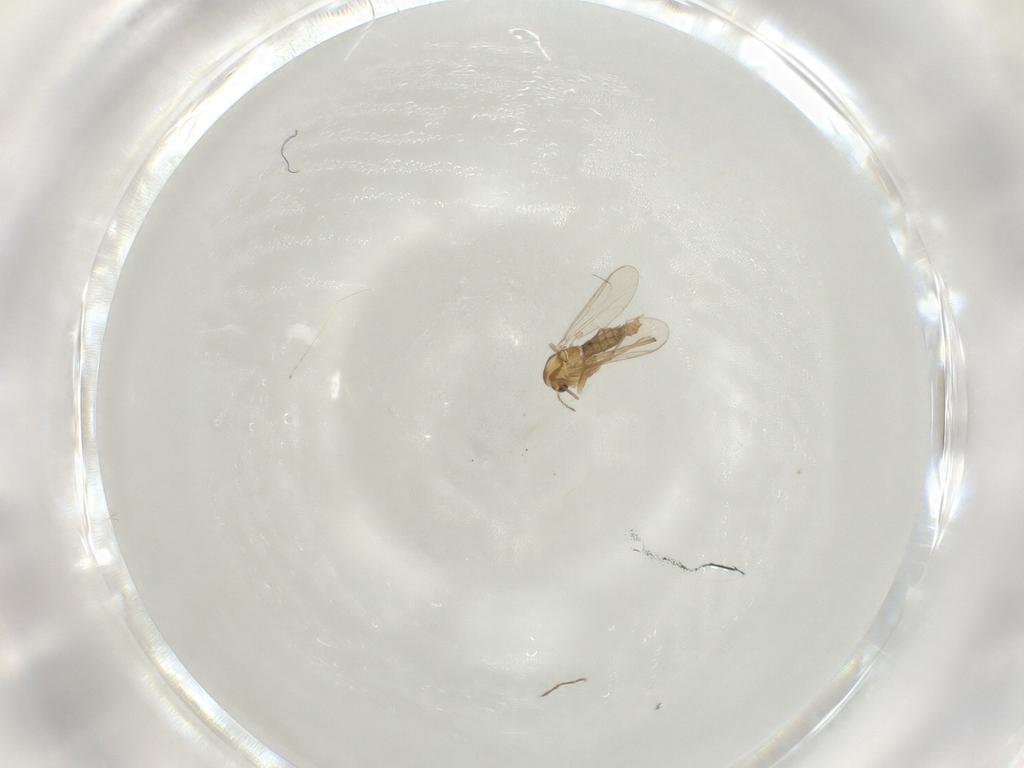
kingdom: Animalia
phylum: Arthropoda
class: Insecta
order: Diptera
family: Chironomidae
